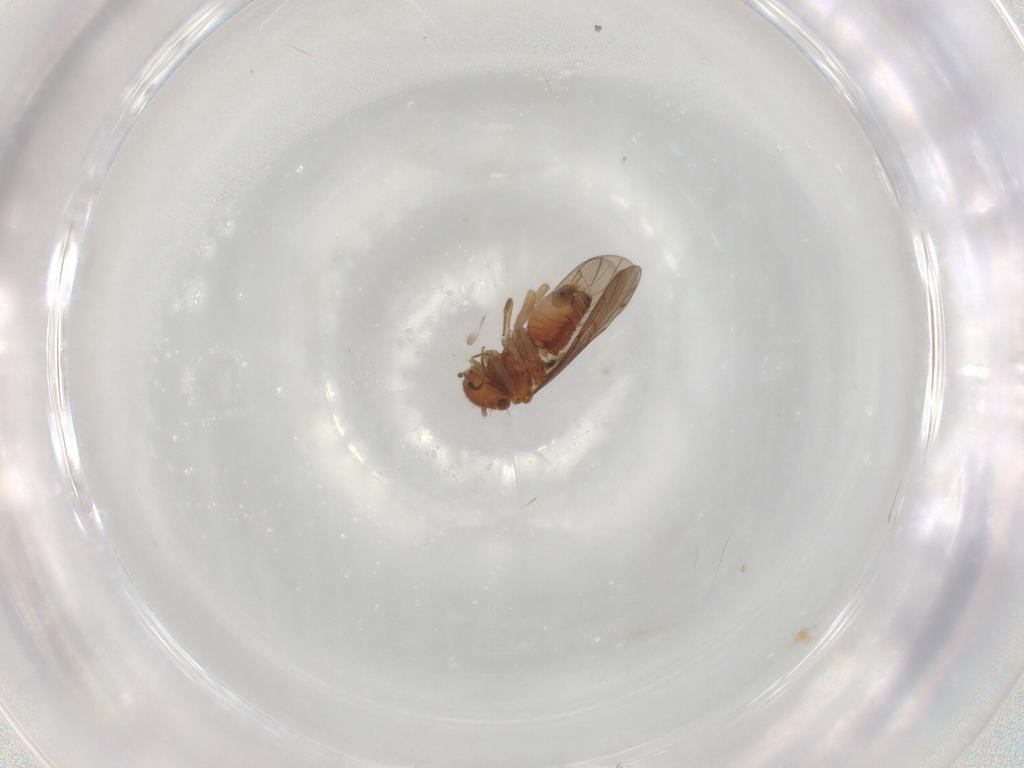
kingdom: Animalia
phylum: Arthropoda
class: Insecta
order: Psocodea
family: Ectopsocidae
